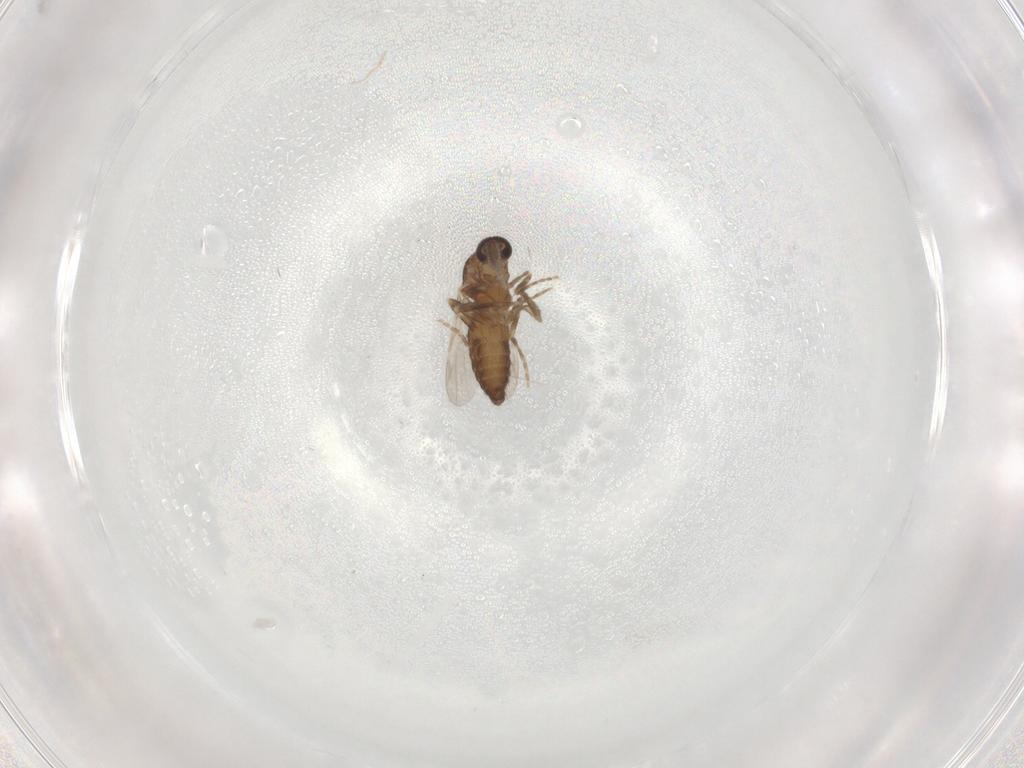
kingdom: Animalia
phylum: Arthropoda
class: Insecta
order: Diptera
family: Ceratopogonidae
